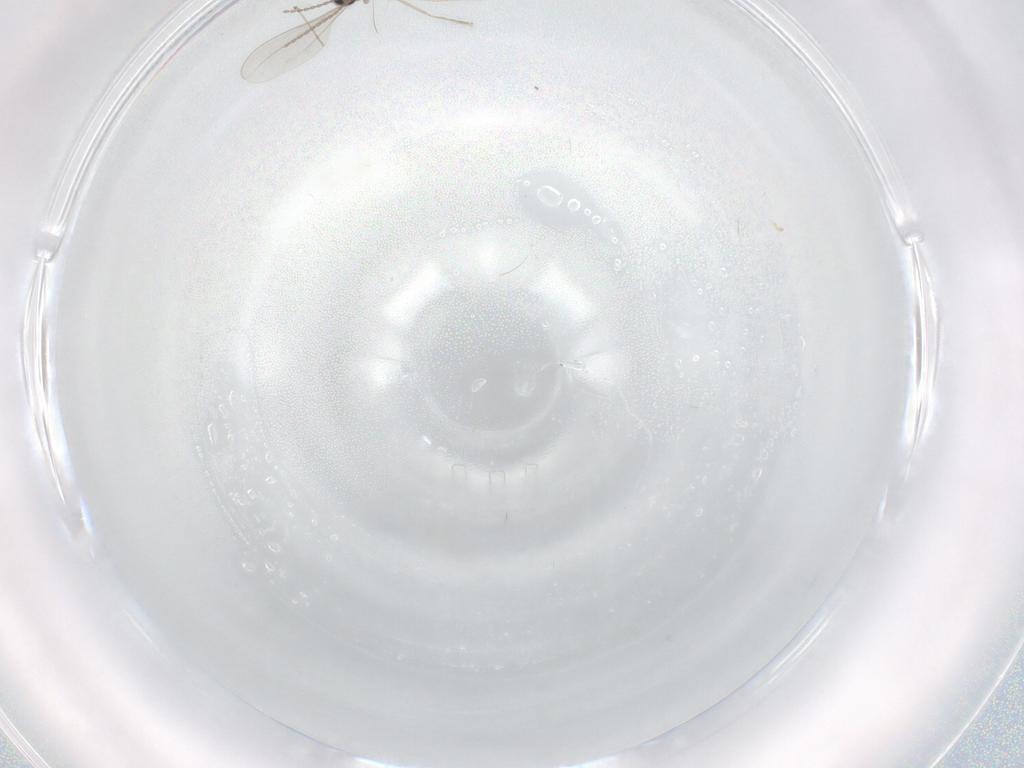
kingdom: Animalia
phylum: Arthropoda
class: Insecta
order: Diptera
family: Cecidomyiidae
